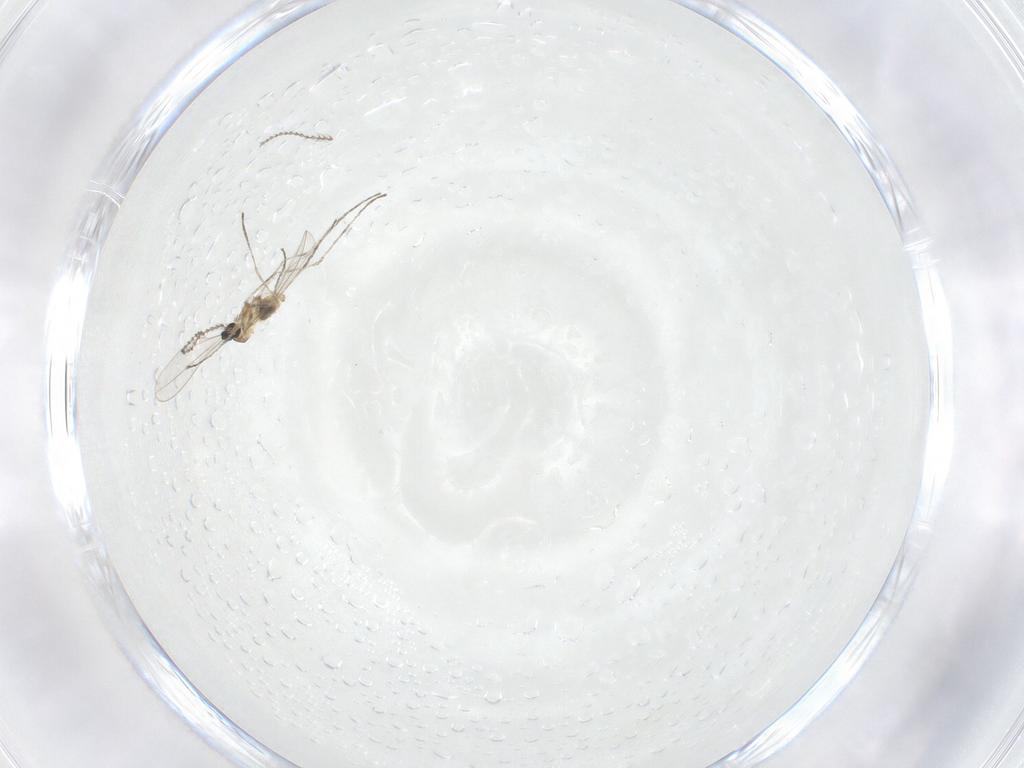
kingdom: Animalia
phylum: Arthropoda
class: Insecta
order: Diptera
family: Cecidomyiidae
